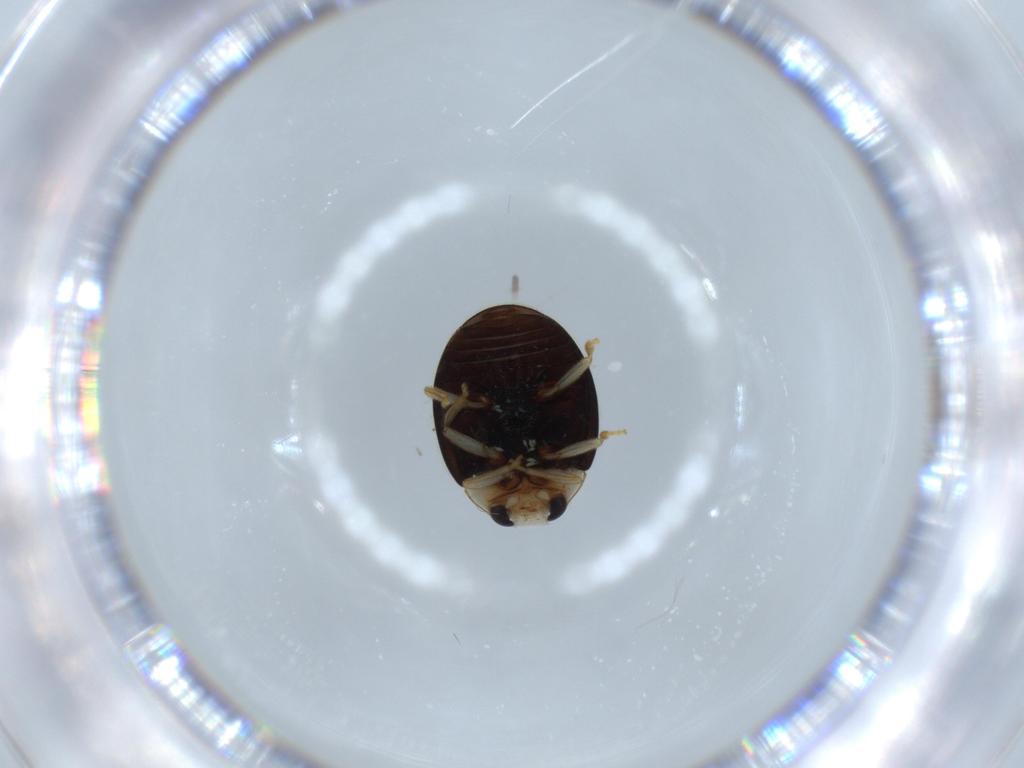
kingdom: Animalia
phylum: Arthropoda
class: Insecta
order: Coleoptera
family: Coccinellidae
